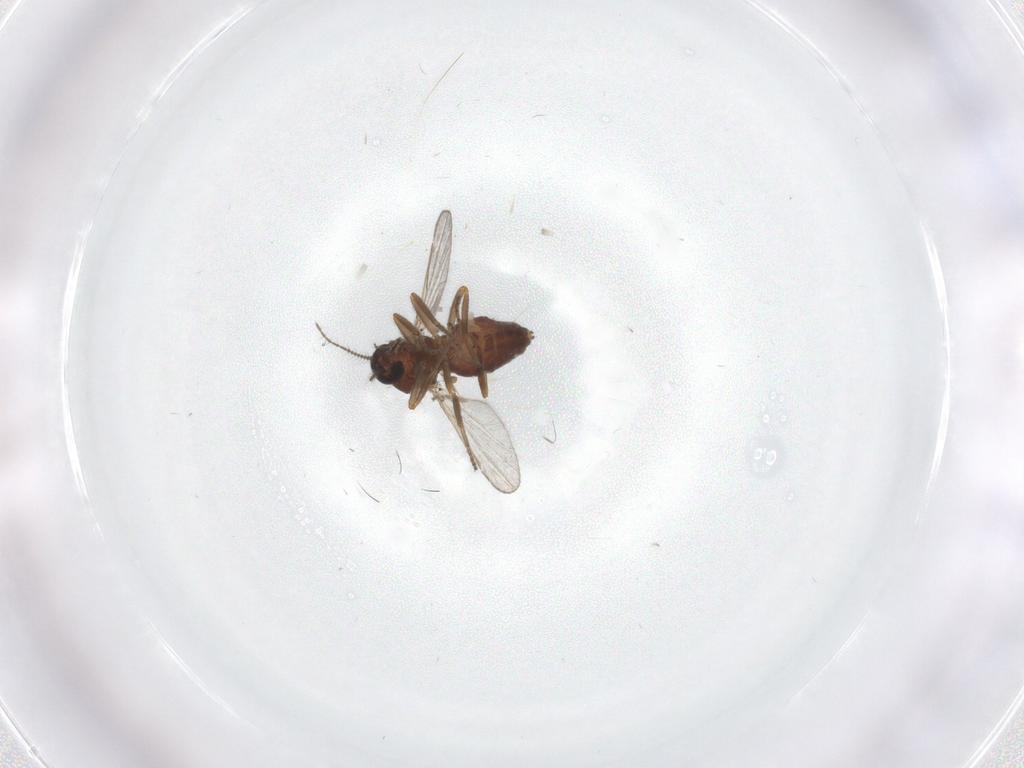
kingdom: Animalia
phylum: Arthropoda
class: Insecta
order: Diptera
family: Ceratopogonidae
